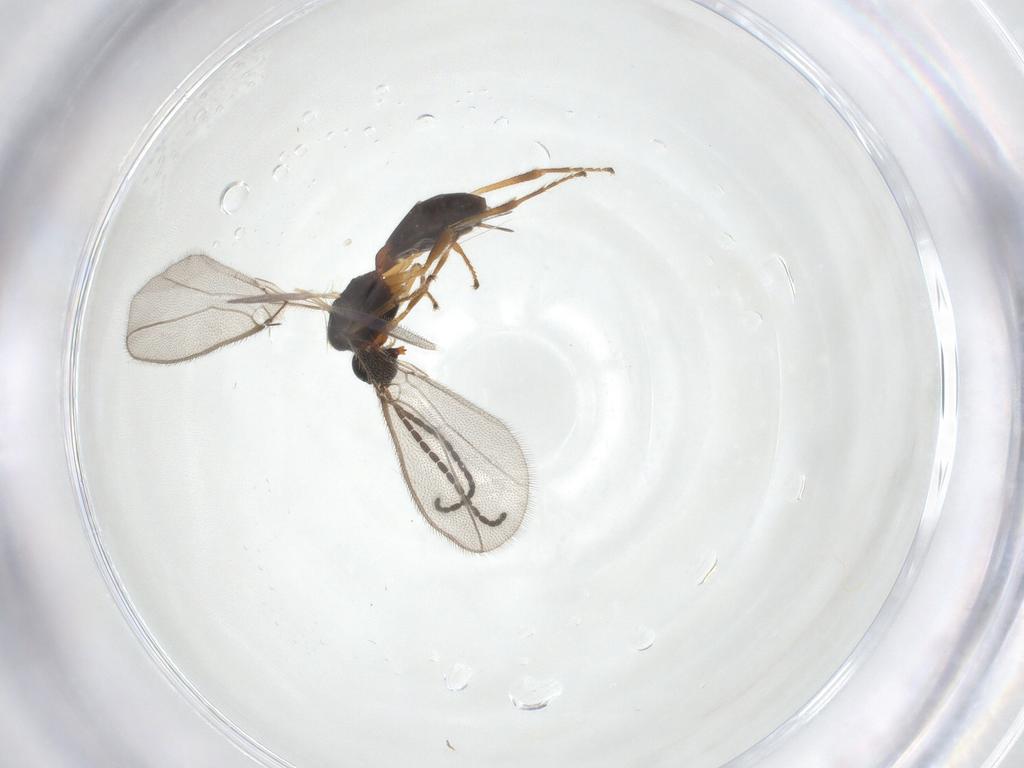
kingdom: Animalia
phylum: Arthropoda
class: Insecta
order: Hymenoptera
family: Braconidae
